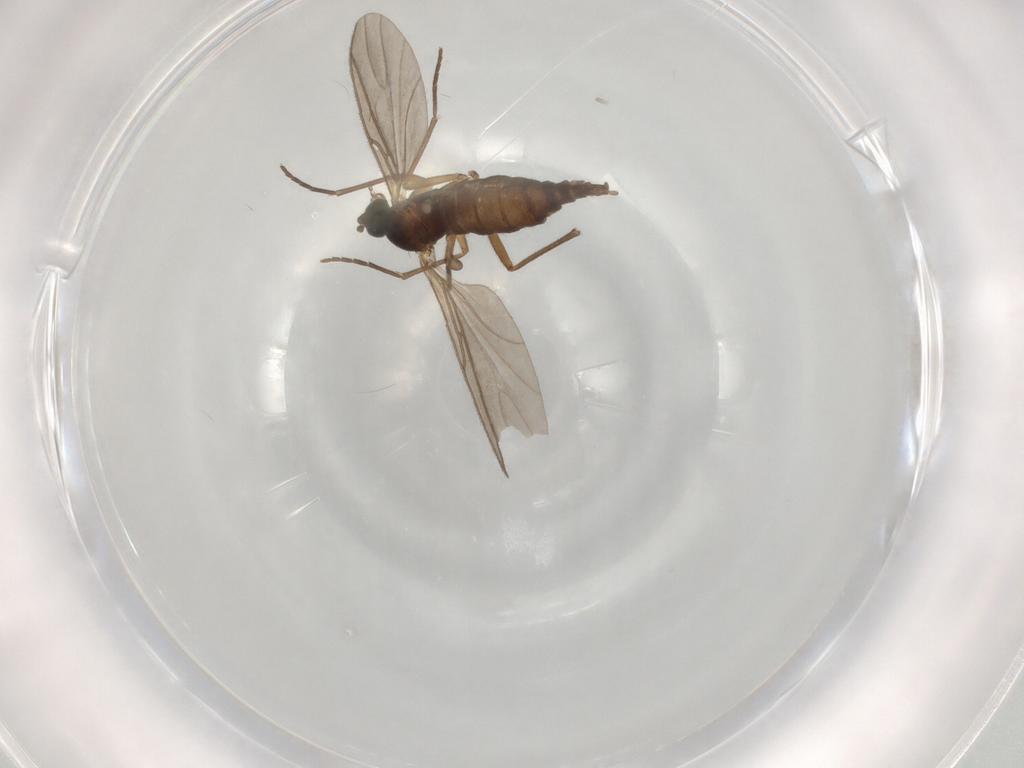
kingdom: Animalia
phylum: Arthropoda
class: Insecta
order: Diptera
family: Sciaridae
